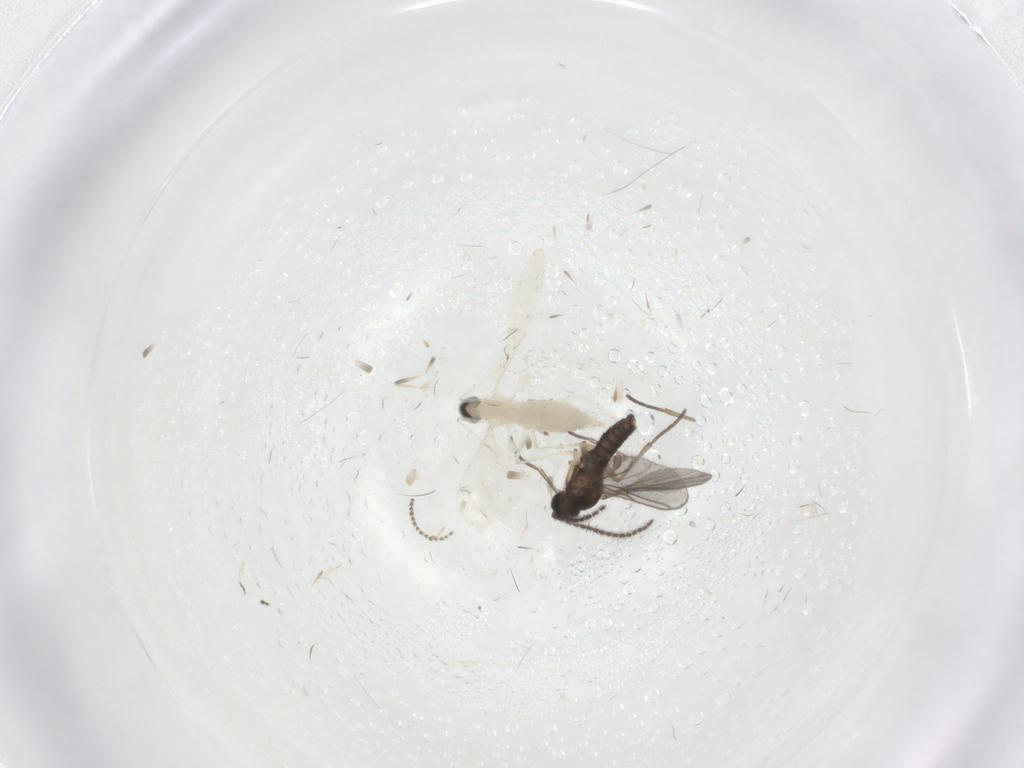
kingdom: Animalia
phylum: Arthropoda
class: Insecta
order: Diptera
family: Cecidomyiidae
